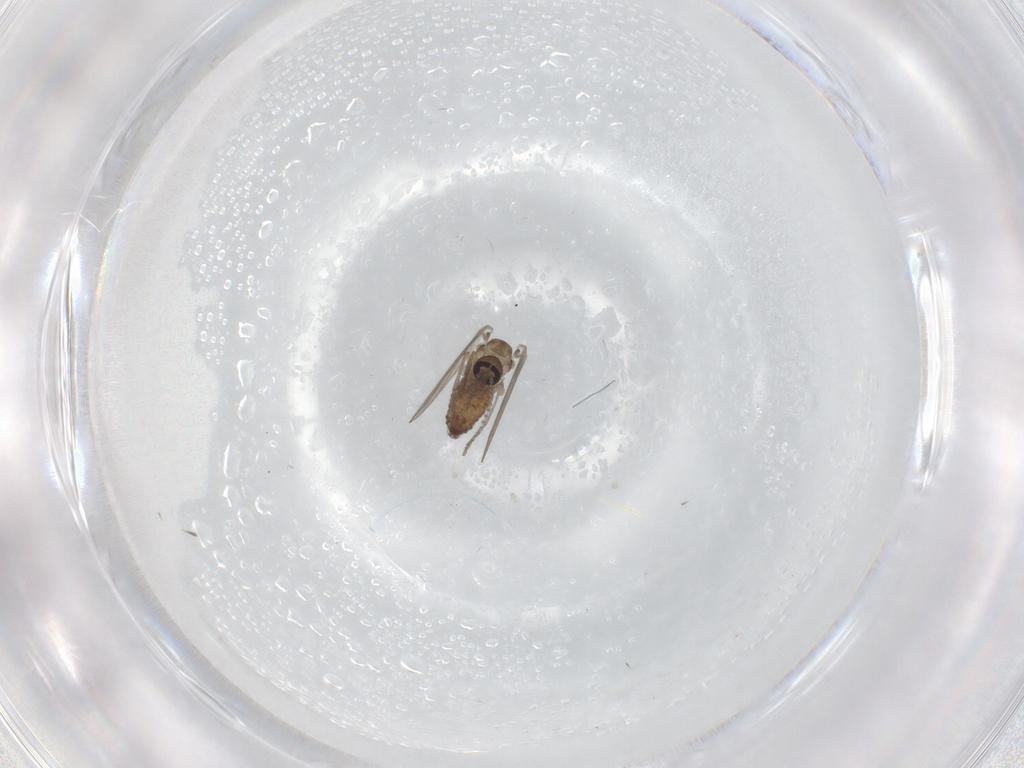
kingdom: Animalia
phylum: Arthropoda
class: Insecta
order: Diptera
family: Psychodidae
